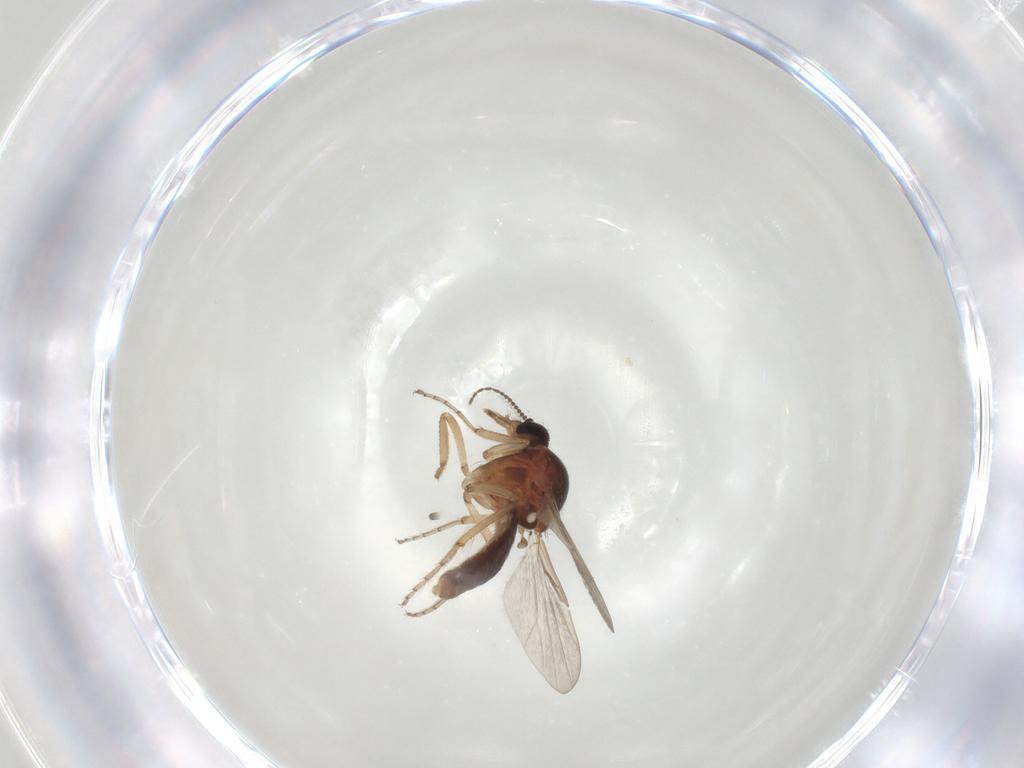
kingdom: Animalia
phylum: Arthropoda
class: Insecta
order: Diptera
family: Ceratopogonidae
